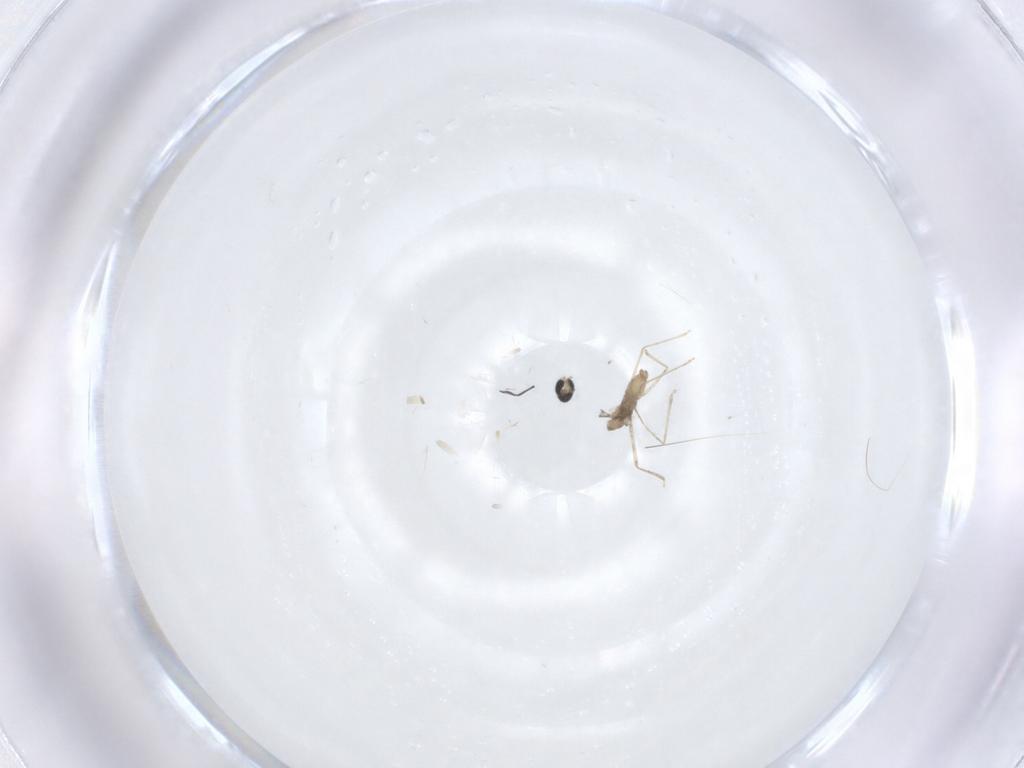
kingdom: Animalia
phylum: Arthropoda
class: Insecta
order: Diptera
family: Cecidomyiidae
